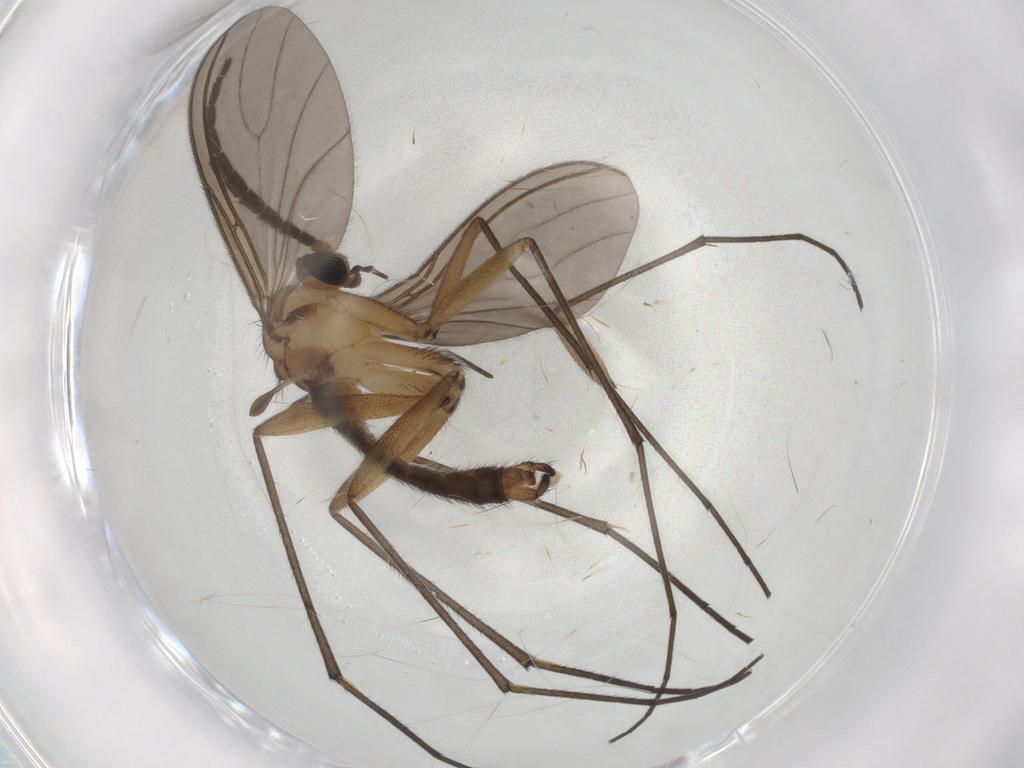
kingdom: Animalia
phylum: Arthropoda
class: Insecta
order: Diptera
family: Sciaridae
